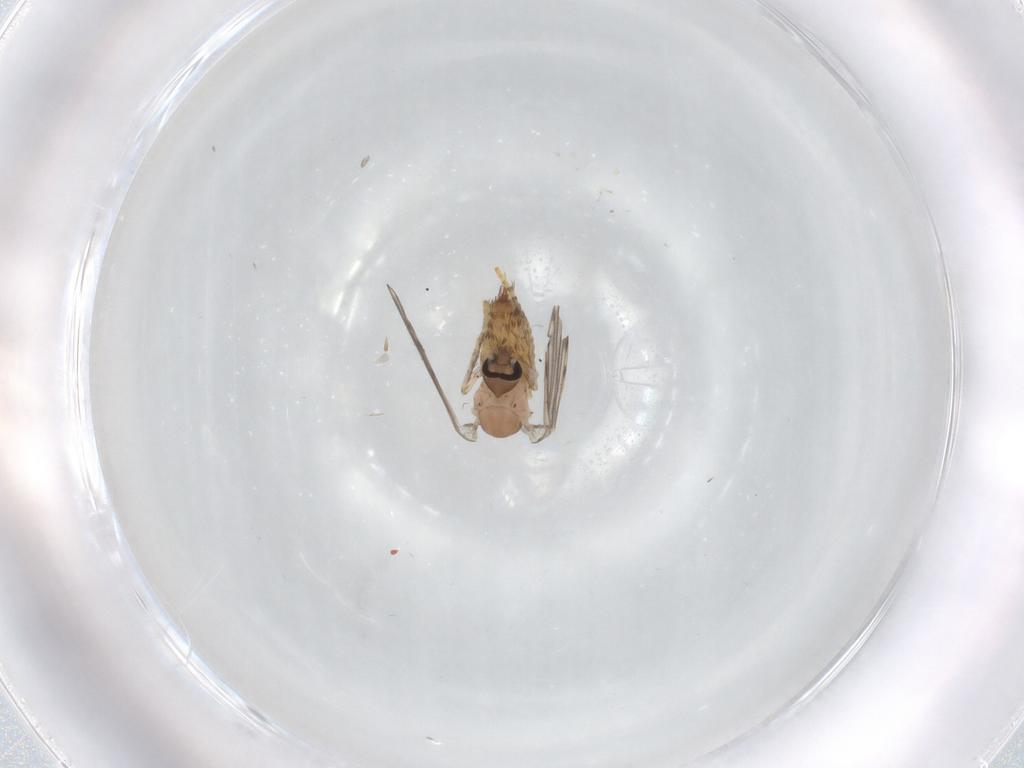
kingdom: Animalia
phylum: Arthropoda
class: Insecta
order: Diptera
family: Psychodidae
